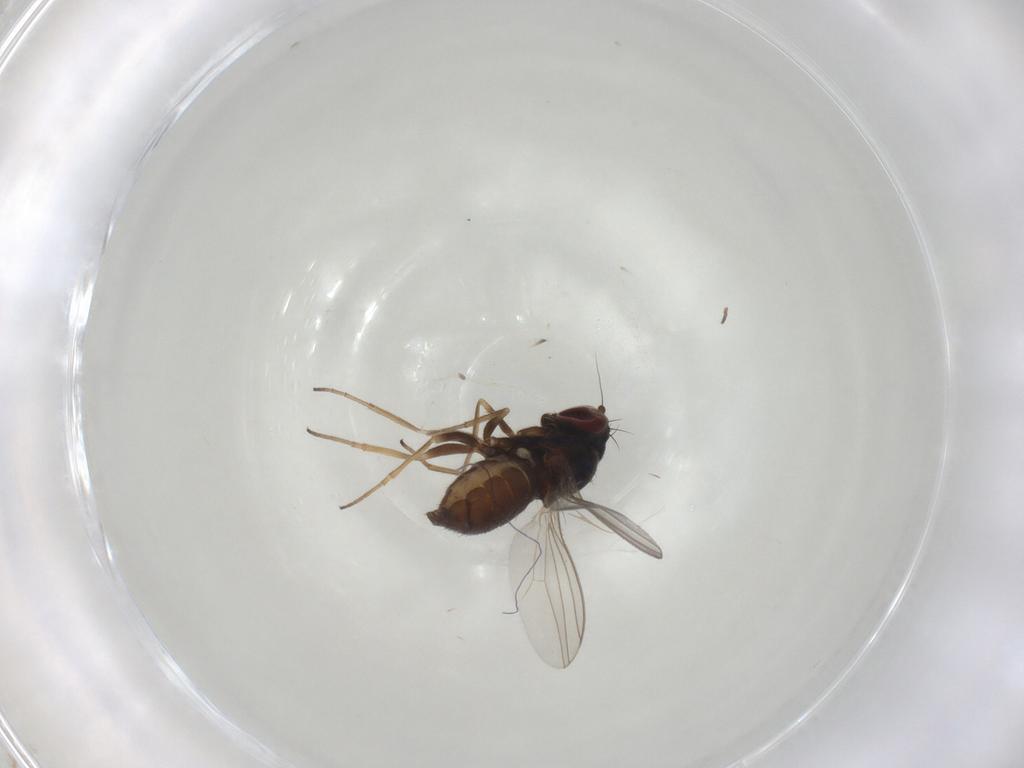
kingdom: Animalia
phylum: Arthropoda
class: Insecta
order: Diptera
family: Dolichopodidae
